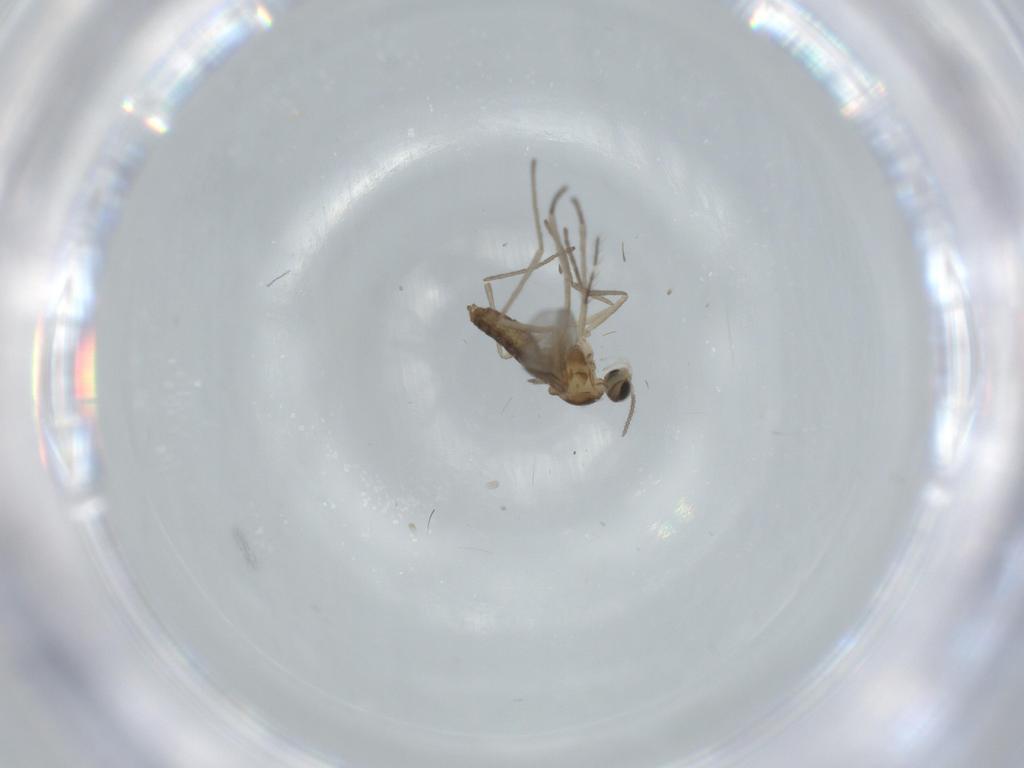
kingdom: Animalia
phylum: Arthropoda
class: Insecta
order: Diptera
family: Cecidomyiidae
